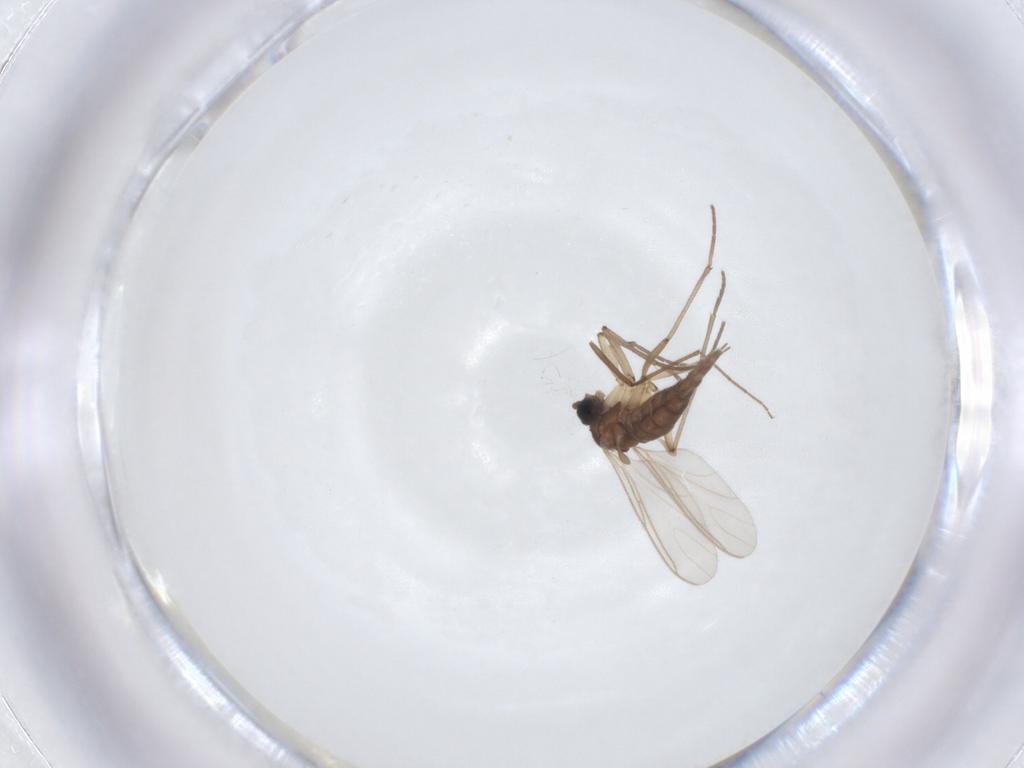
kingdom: Animalia
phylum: Arthropoda
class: Insecta
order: Diptera
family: Sciaridae
